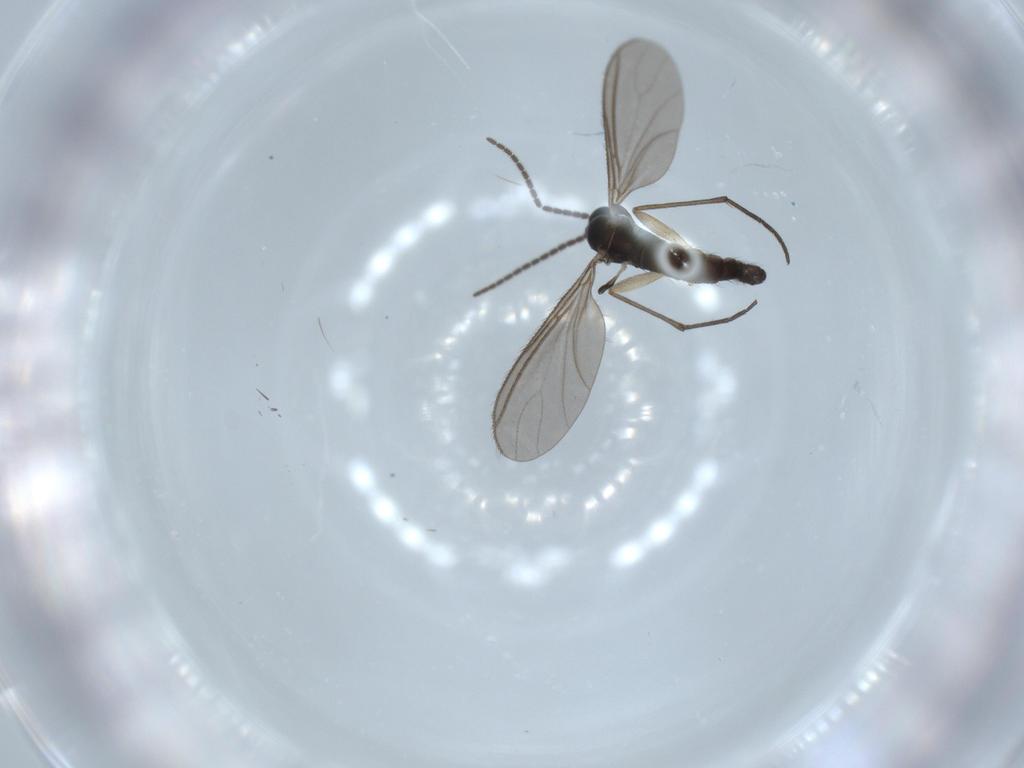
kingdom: Animalia
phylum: Arthropoda
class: Insecta
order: Diptera
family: Sciaridae
